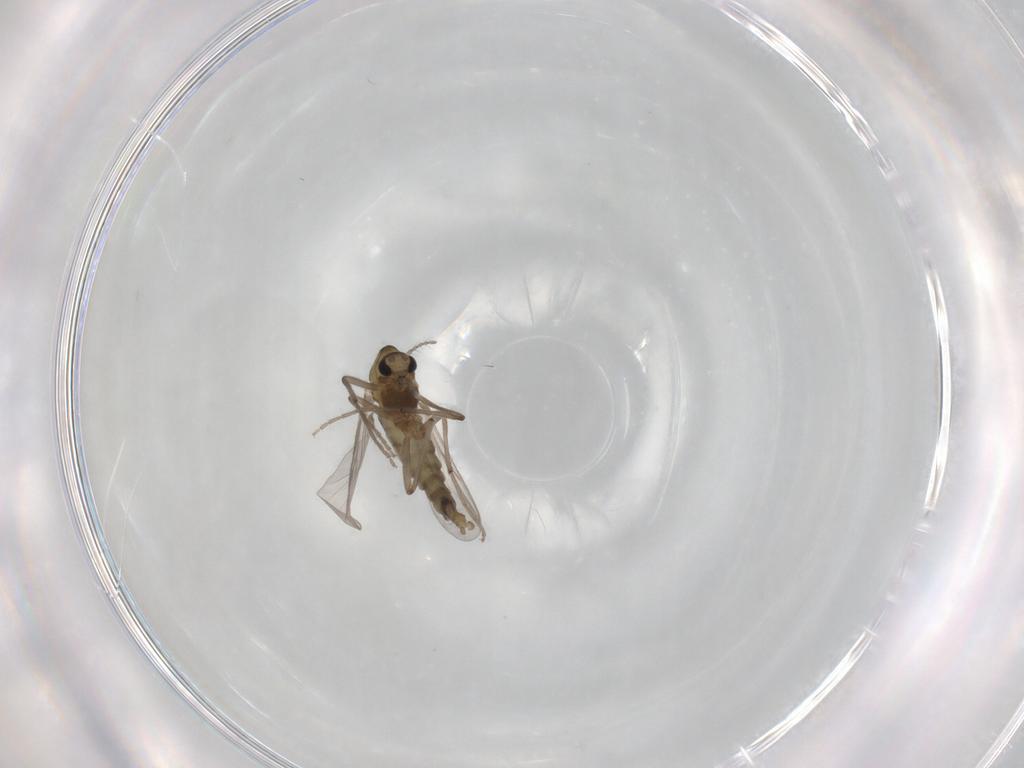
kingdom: Animalia
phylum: Arthropoda
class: Insecta
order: Diptera
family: Chironomidae
